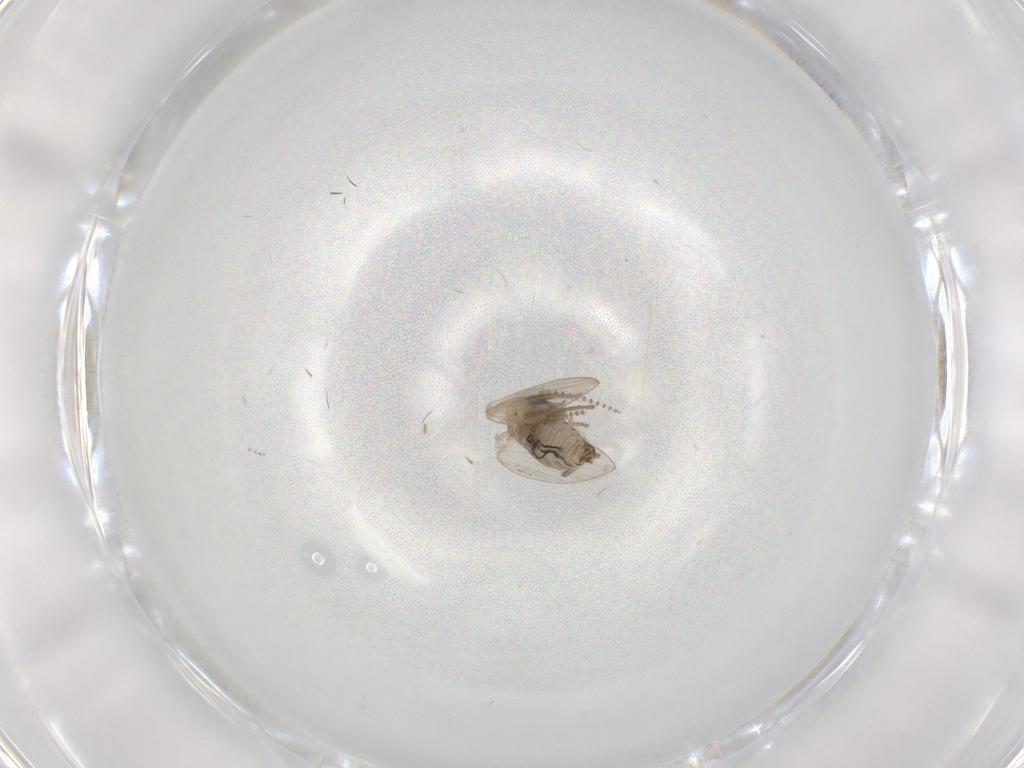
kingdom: Animalia
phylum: Arthropoda
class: Insecta
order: Diptera
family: Psychodidae
